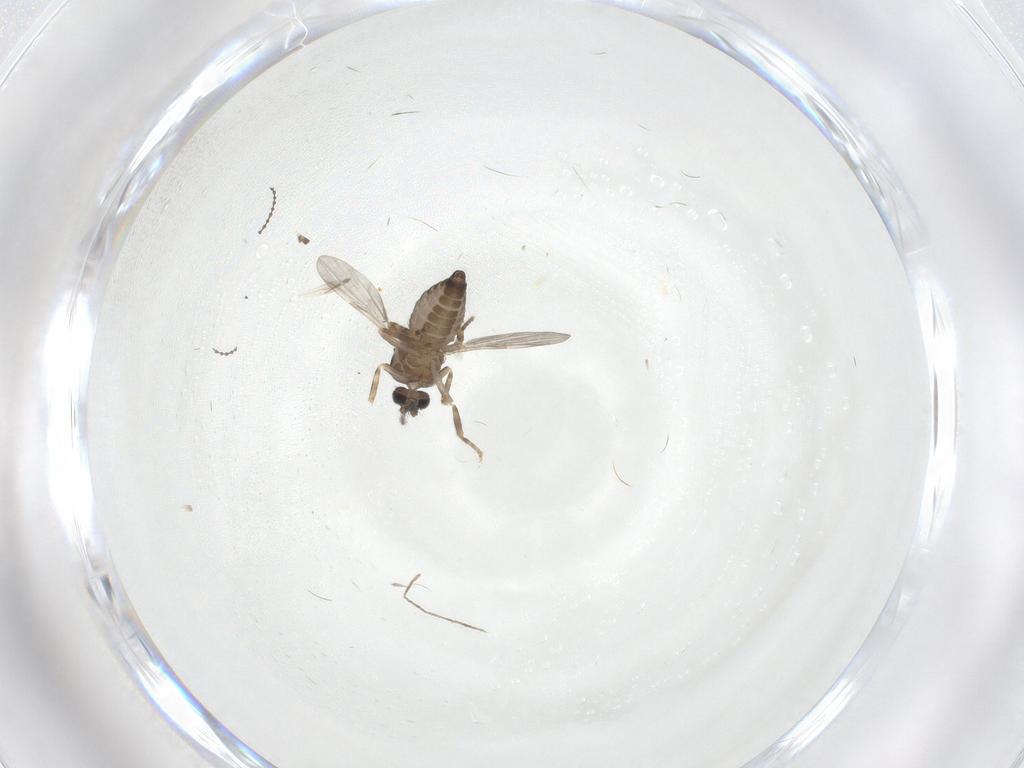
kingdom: Animalia
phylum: Arthropoda
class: Insecta
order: Diptera
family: Ceratopogonidae
